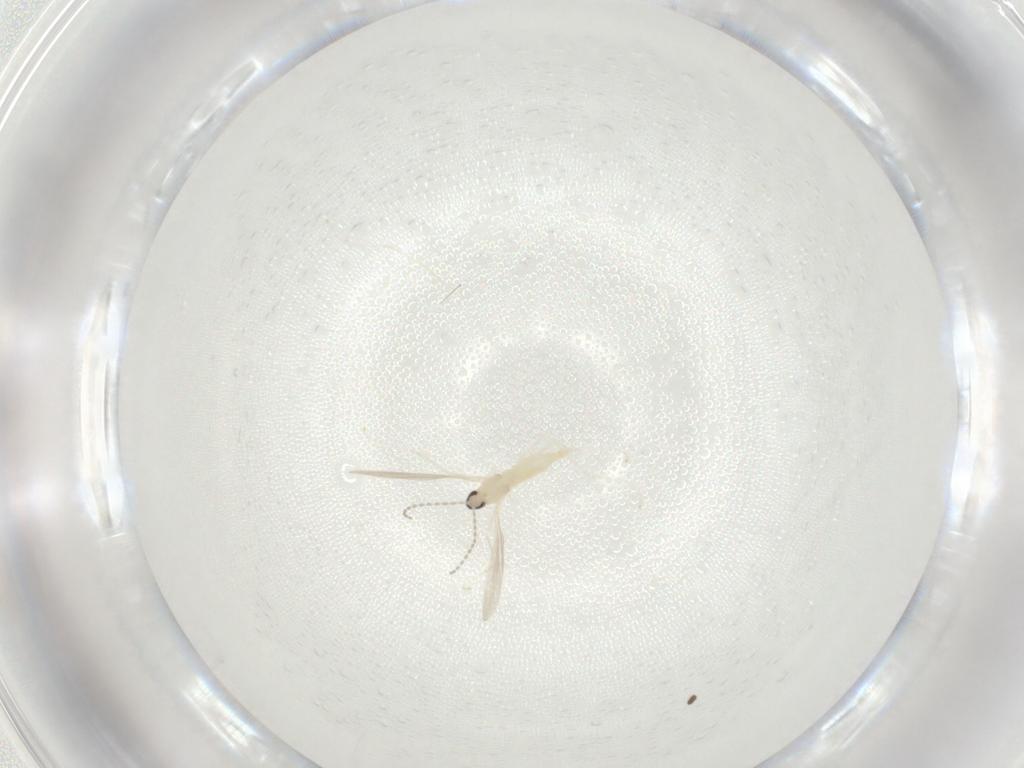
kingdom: Animalia
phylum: Arthropoda
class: Insecta
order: Diptera
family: Cecidomyiidae
